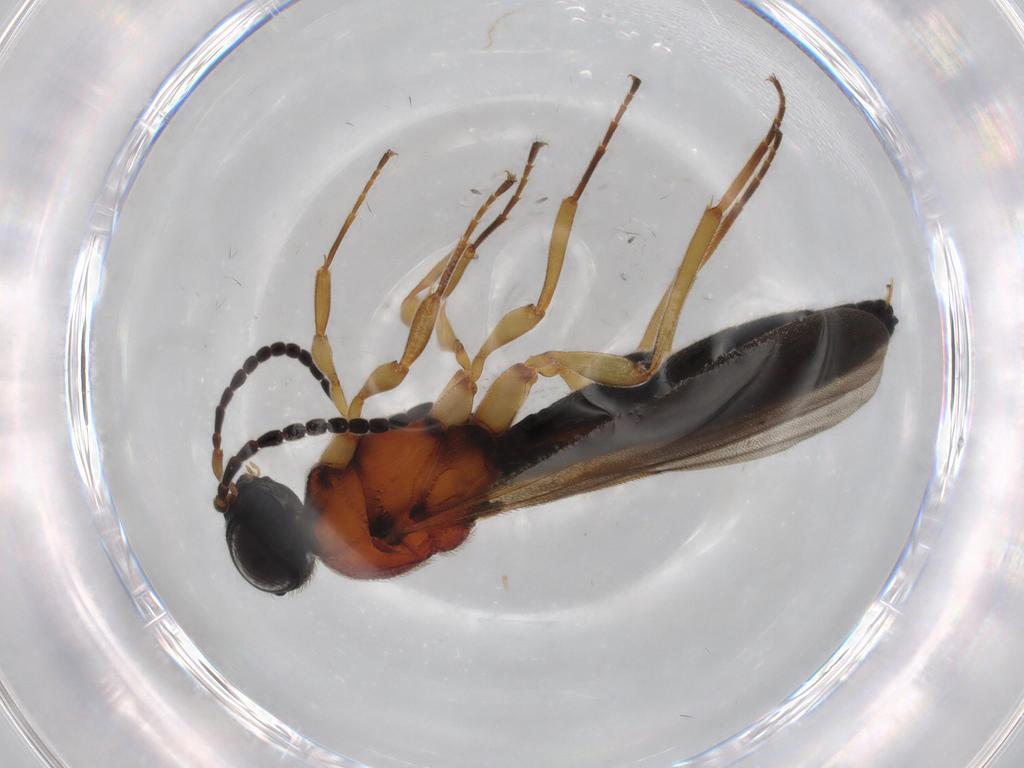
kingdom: Animalia
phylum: Arthropoda
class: Insecta
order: Hymenoptera
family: Scelionidae
